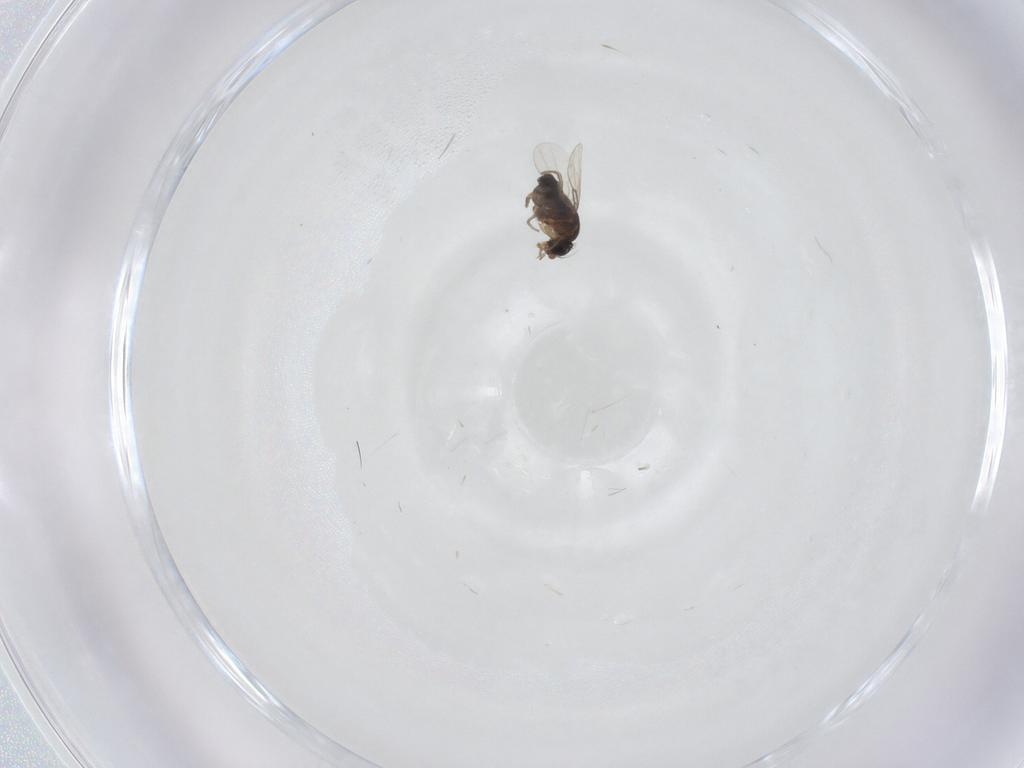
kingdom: Animalia
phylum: Arthropoda
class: Insecta
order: Diptera
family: Phoridae
